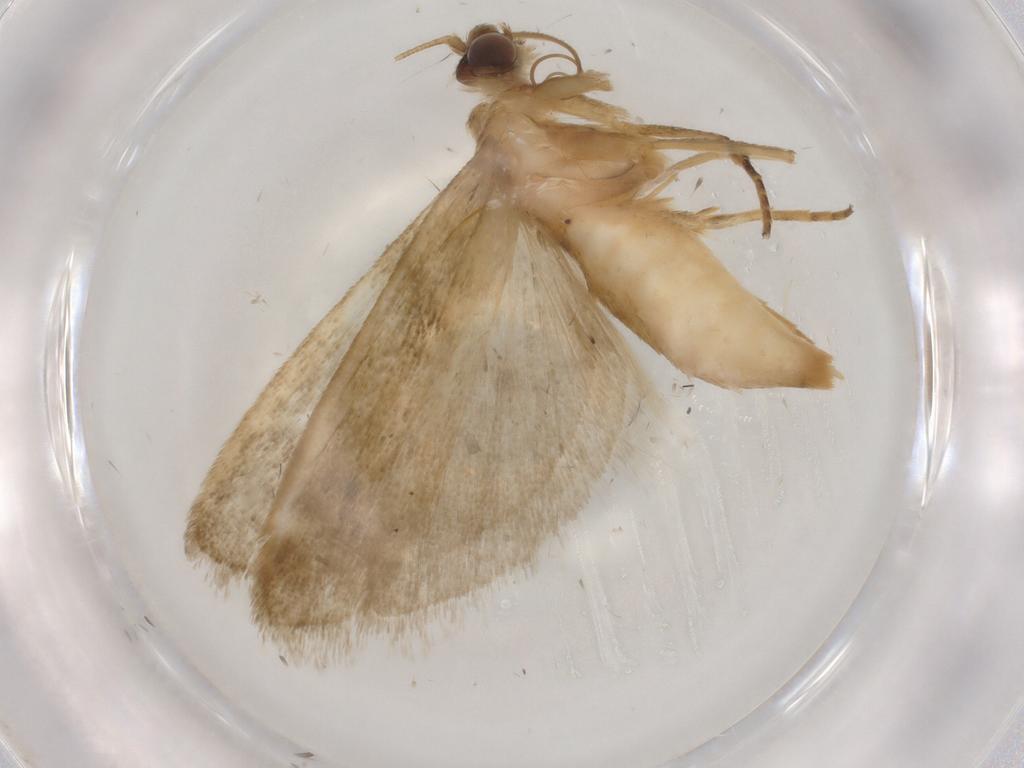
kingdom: Animalia
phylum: Arthropoda
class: Insecta
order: Lepidoptera
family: Noctuidae
